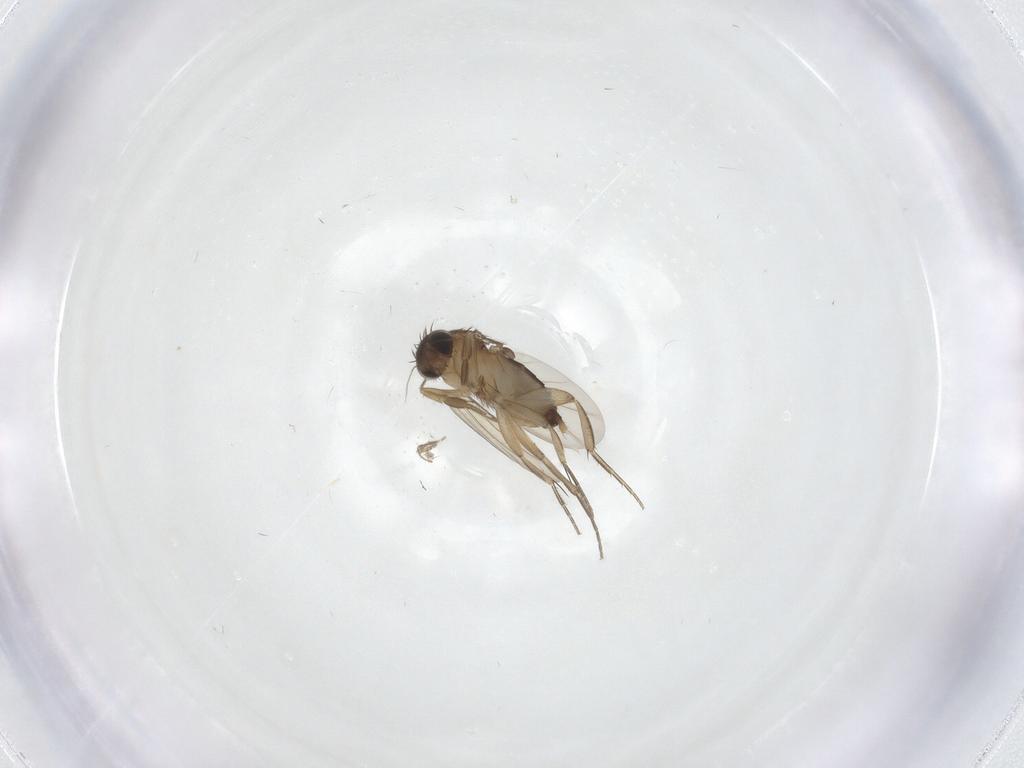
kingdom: Animalia
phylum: Arthropoda
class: Insecta
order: Diptera
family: Phoridae
